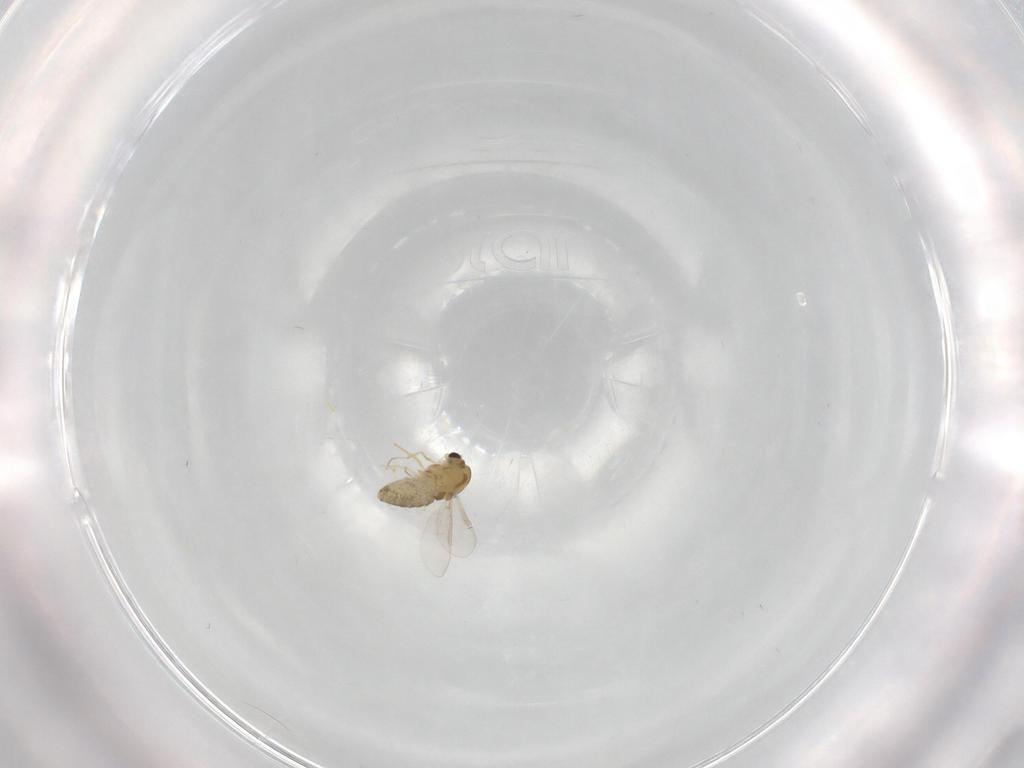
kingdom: Animalia
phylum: Arthropoda
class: Insecta
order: Diptera
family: Chironomidae
